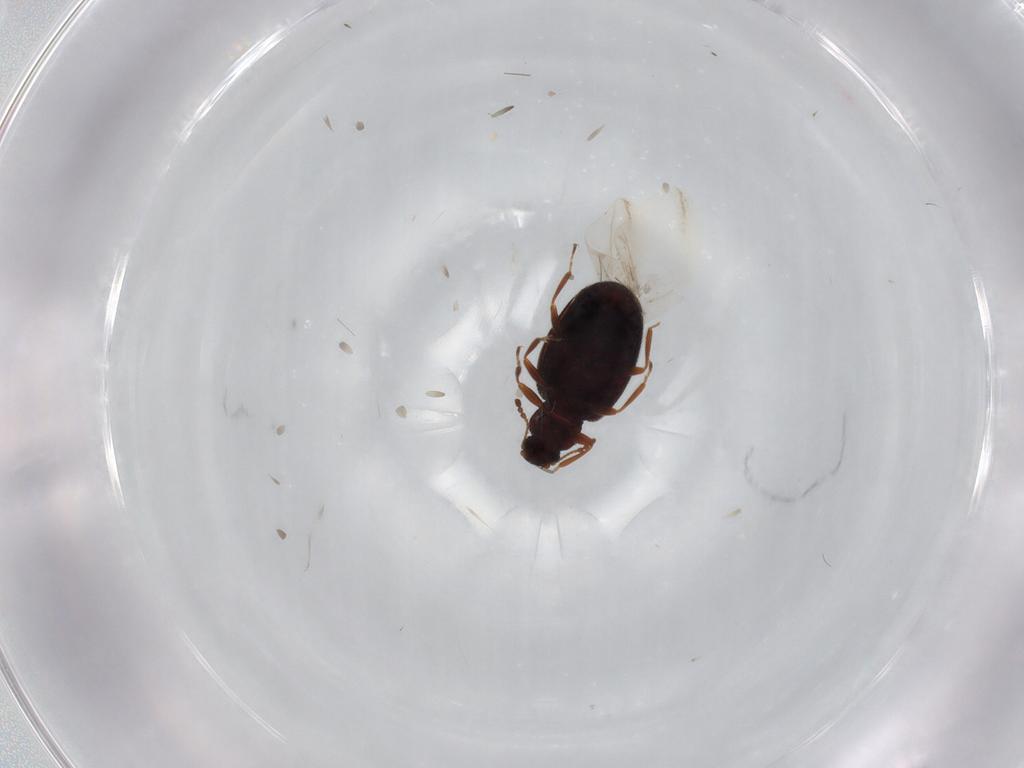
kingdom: Animalia
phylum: Arthropoda
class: Insecta
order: Coleoptera
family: Latridiidae
